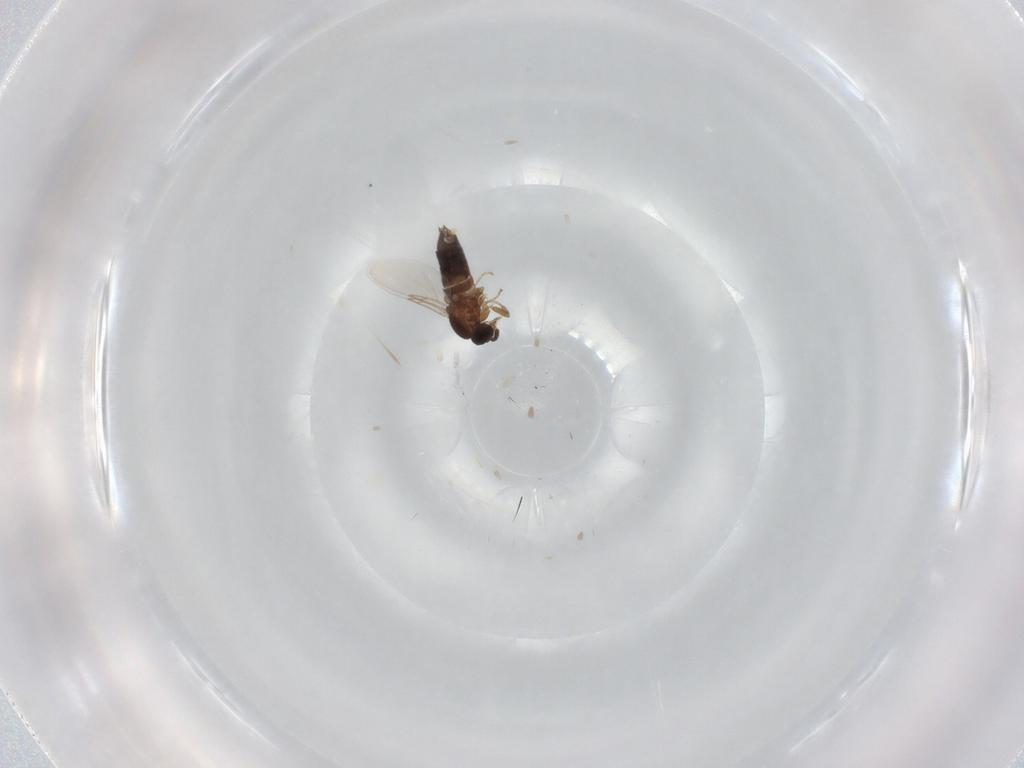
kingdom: Animalia
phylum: Arthropoda
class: Insecta
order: Diptera
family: Scatopsidae
